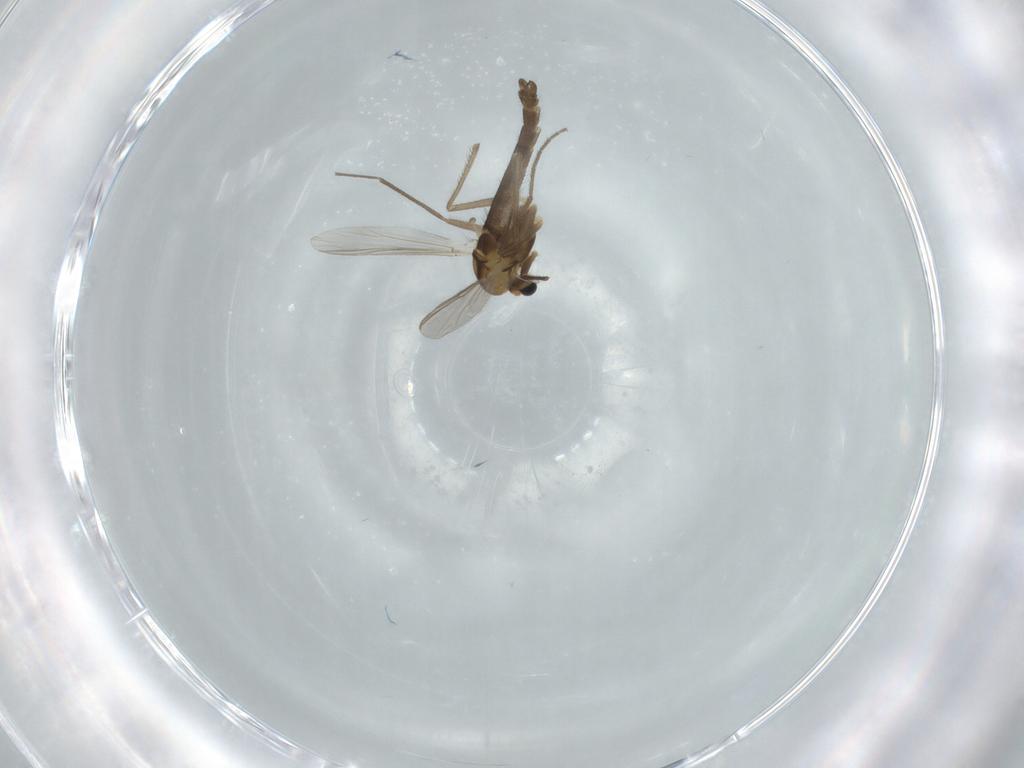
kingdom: Animalia
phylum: Arthropoda
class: Insecta
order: Diptera
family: Chironomidae
